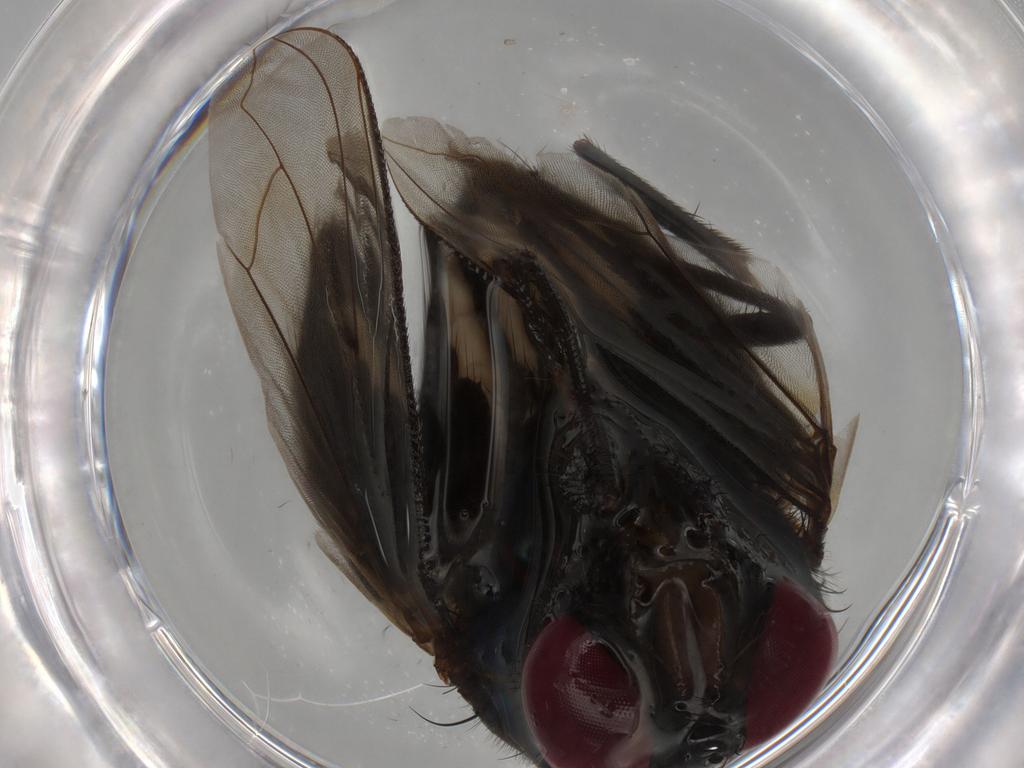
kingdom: Animalia
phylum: Arthropoda
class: Insecta
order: Diptera
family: Calliphoridae
